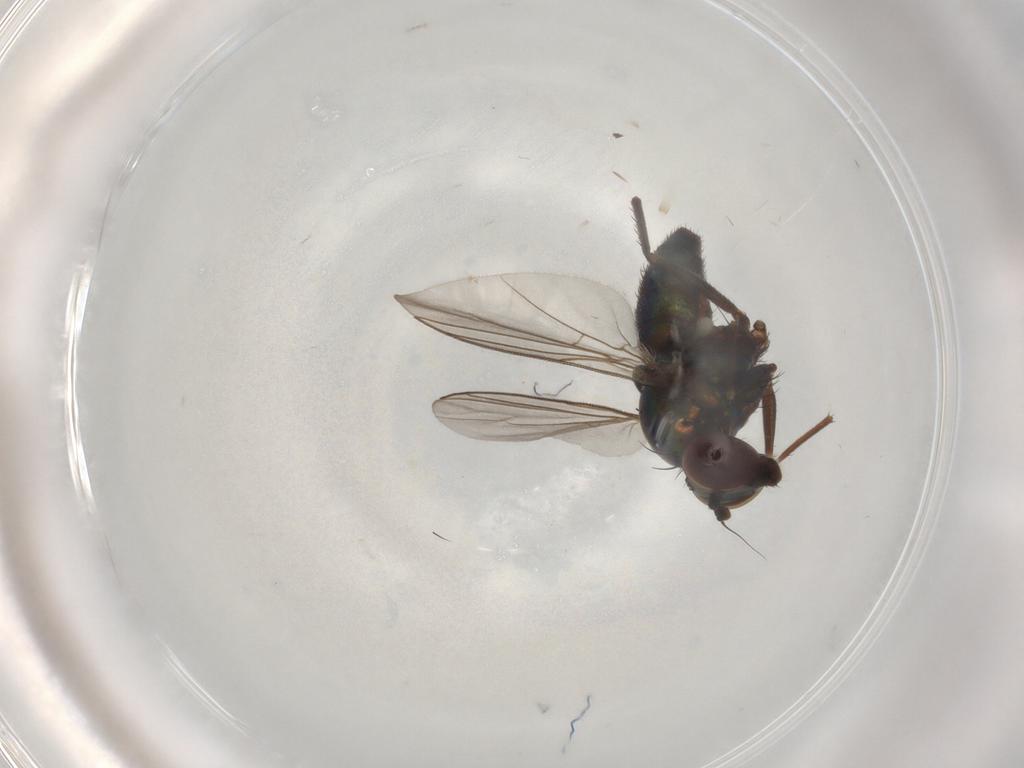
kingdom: Animalia
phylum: Arthropoda
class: Insecta
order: Diptera
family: Dolichopodidae
